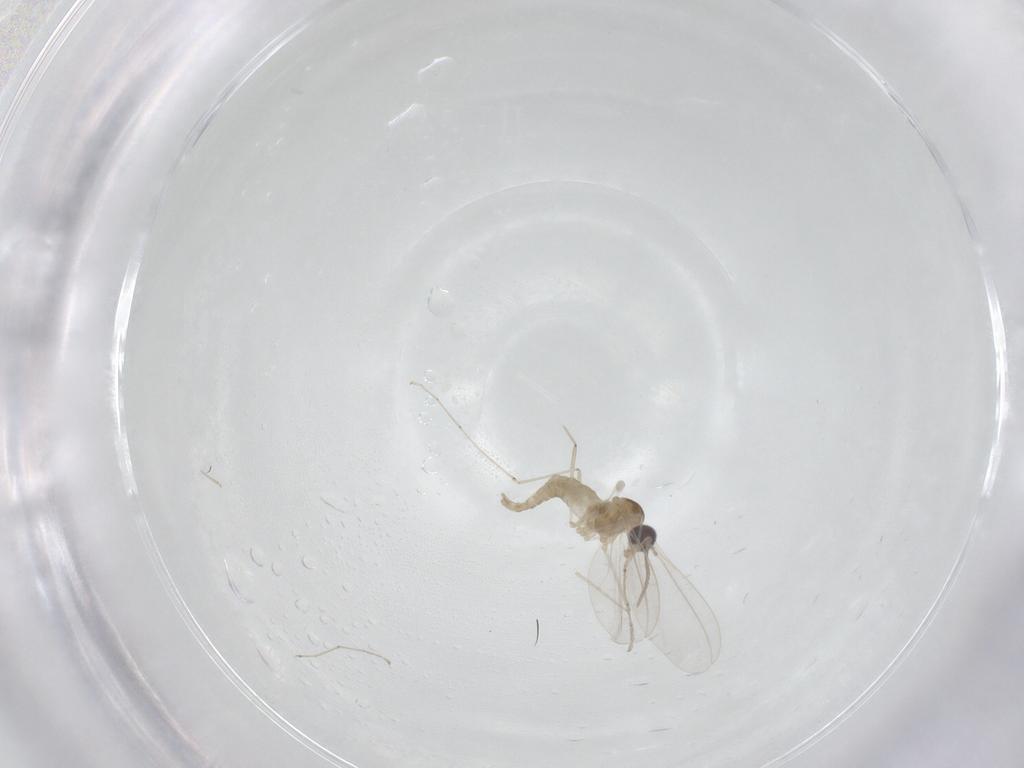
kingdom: Animalia
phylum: Arthropoda
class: Insecta
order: Diptera
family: Cecidomyiidae
